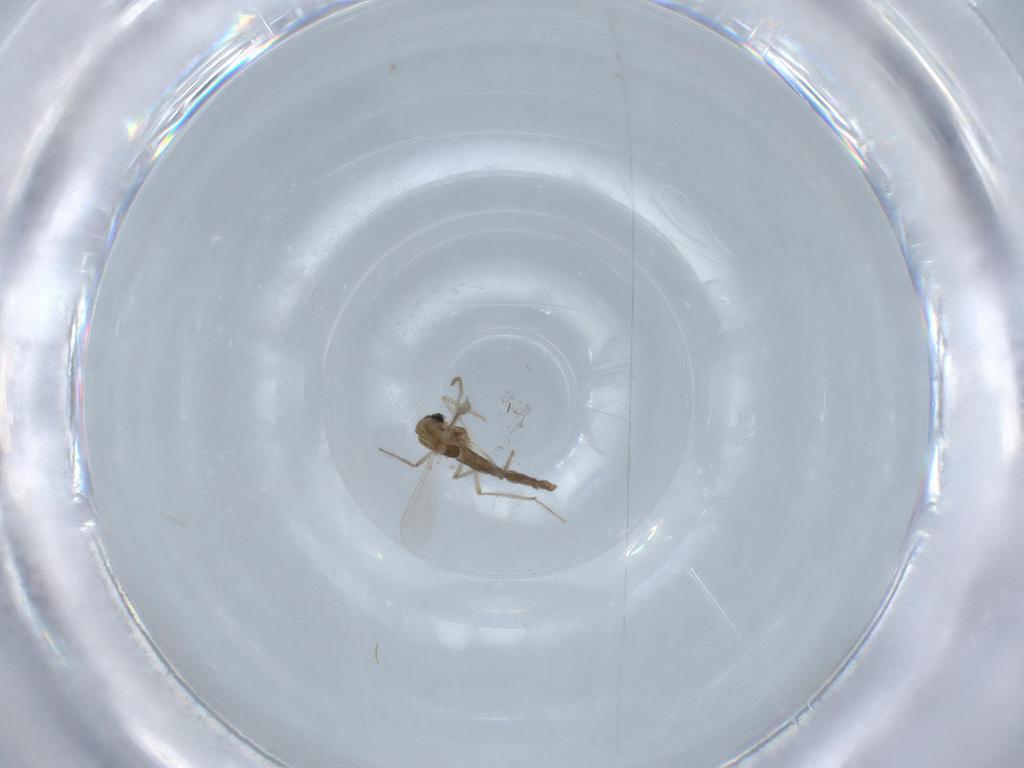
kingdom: Animalia
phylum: Arthropoda
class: Insecta
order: Diptera
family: Chironomidae
